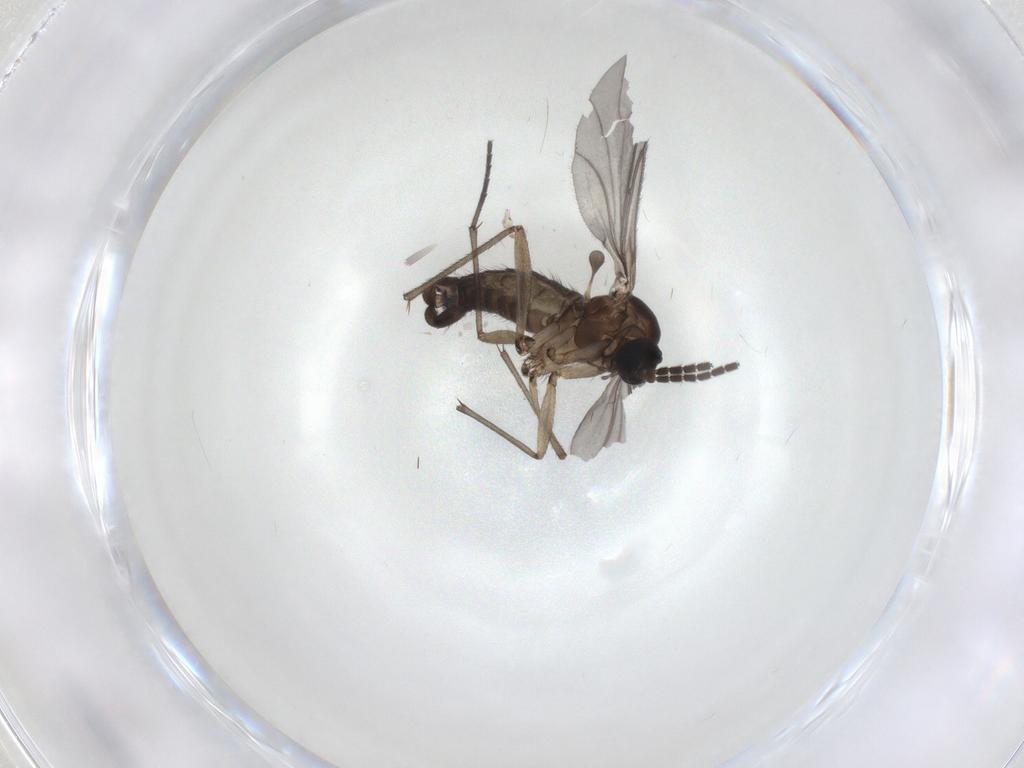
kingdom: Animalia
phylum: Arthropoda
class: Insecta
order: Diptera
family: Sciaridae
